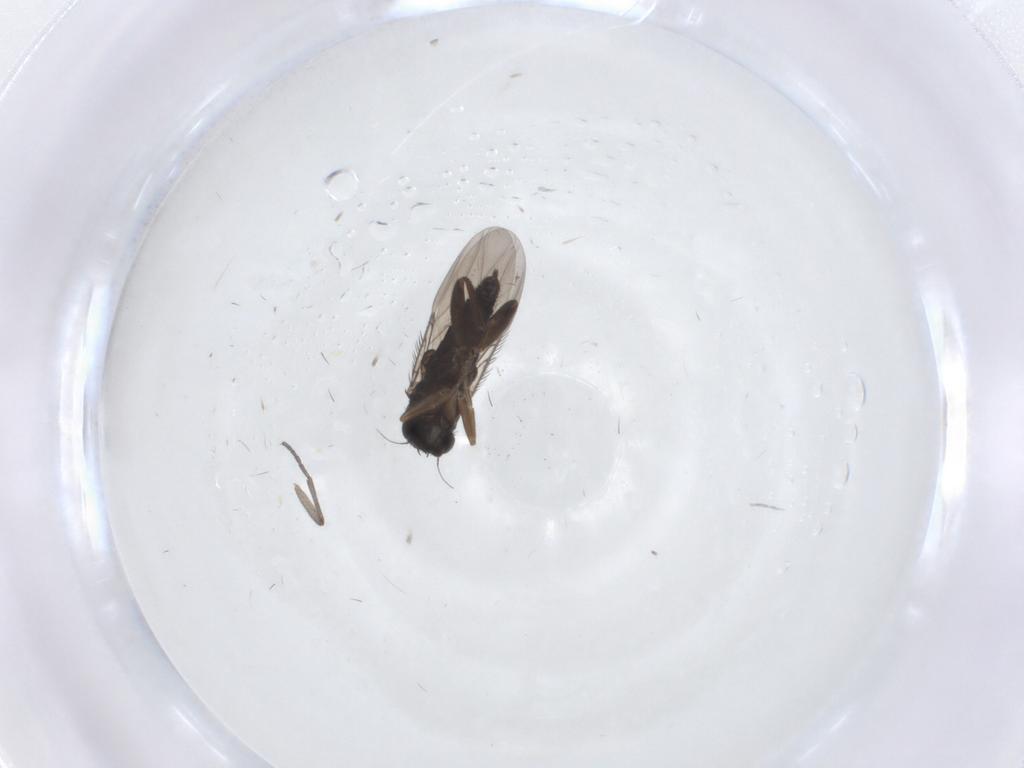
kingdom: Animalia
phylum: Arthropoda
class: Insecta
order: Diptera
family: Phoridae
